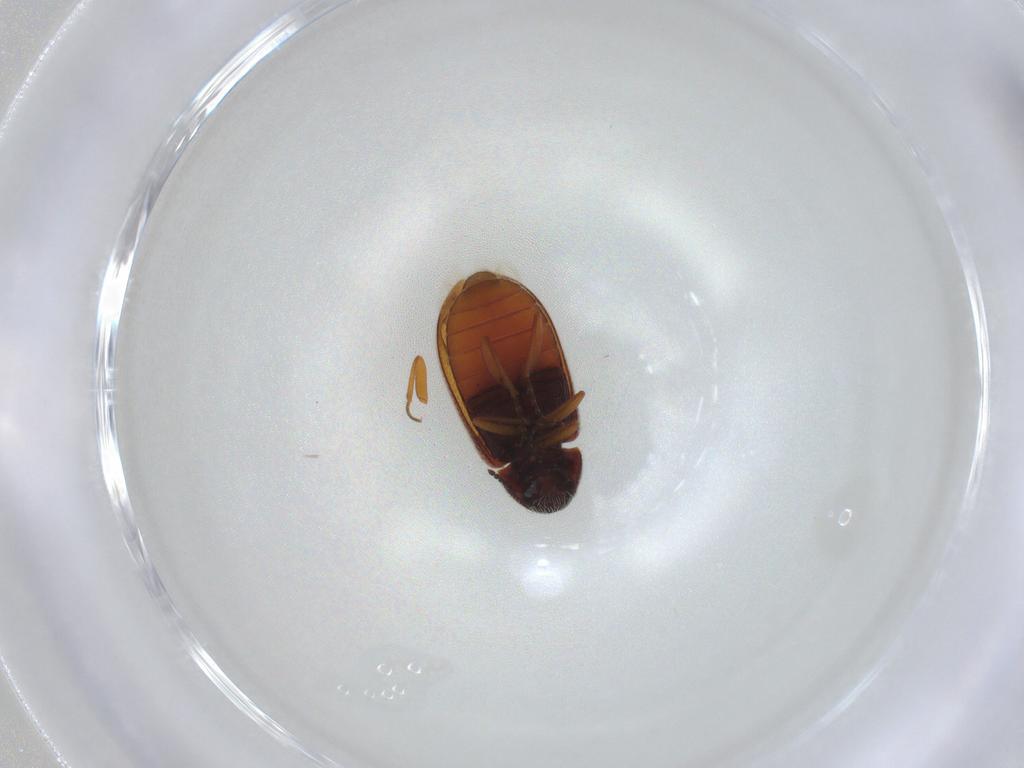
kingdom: Animalia
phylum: Arthropoda
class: Insecta
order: Coleoptera
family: Rhadalidae
